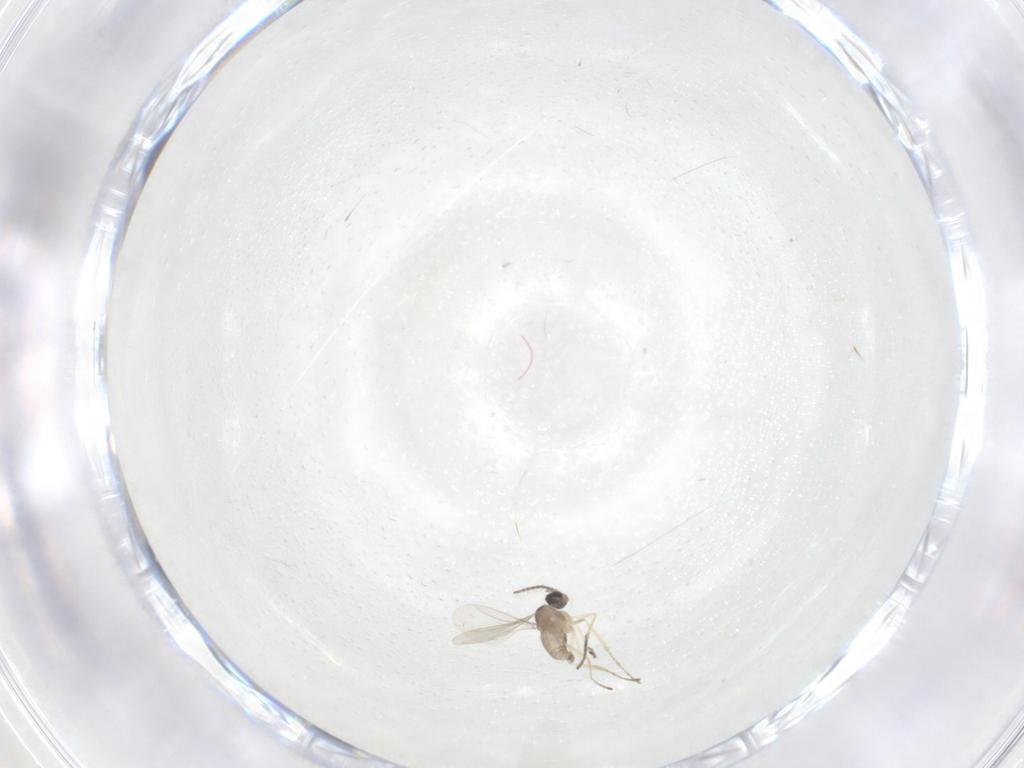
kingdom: Animalia
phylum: Arthropoda
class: Insecta
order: Diptera
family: Cecidomyiidae
